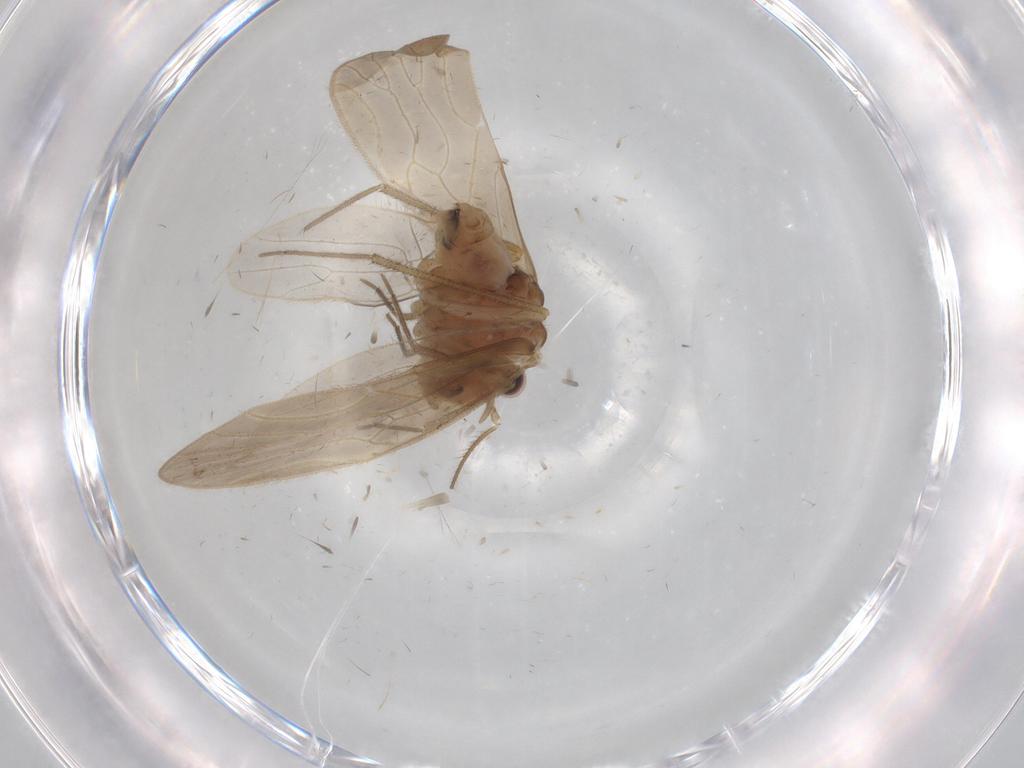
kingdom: Animalia
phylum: Arthropoda
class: Insecta
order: Psocodea
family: Mesopsocidae
